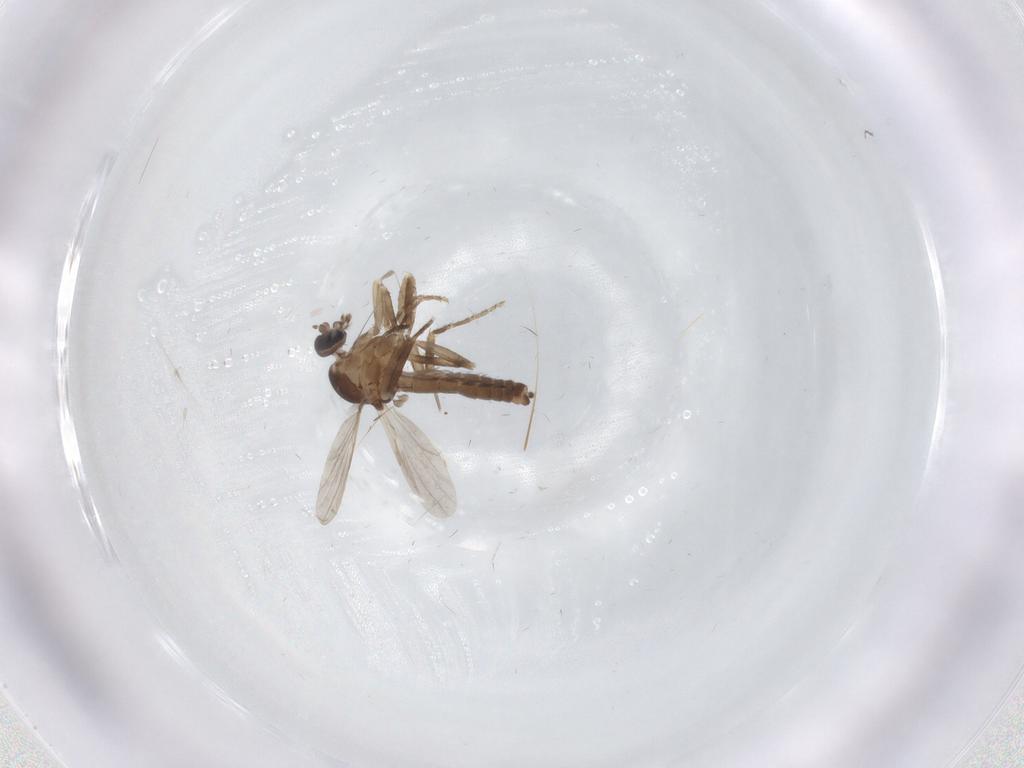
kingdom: Animalia
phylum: Arthropoda
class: Insecta
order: Diptera
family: Ceratopogonidae
